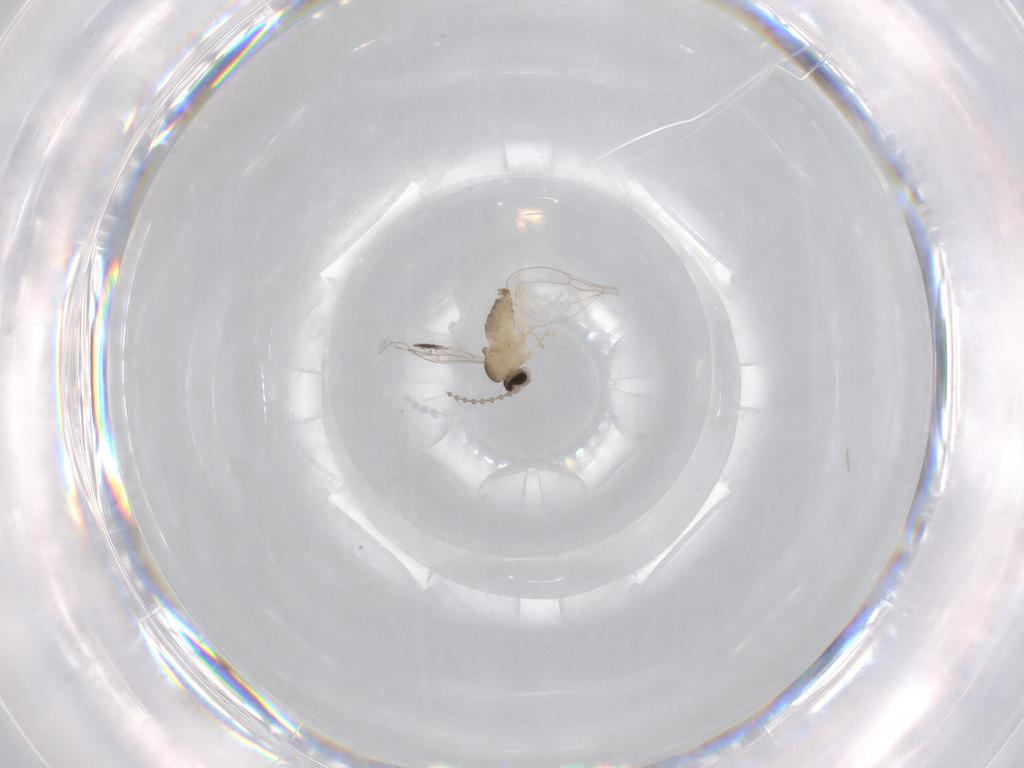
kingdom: Animalia
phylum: Arthropoda
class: Insecta
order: Diptera
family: Cecidomyiidae
